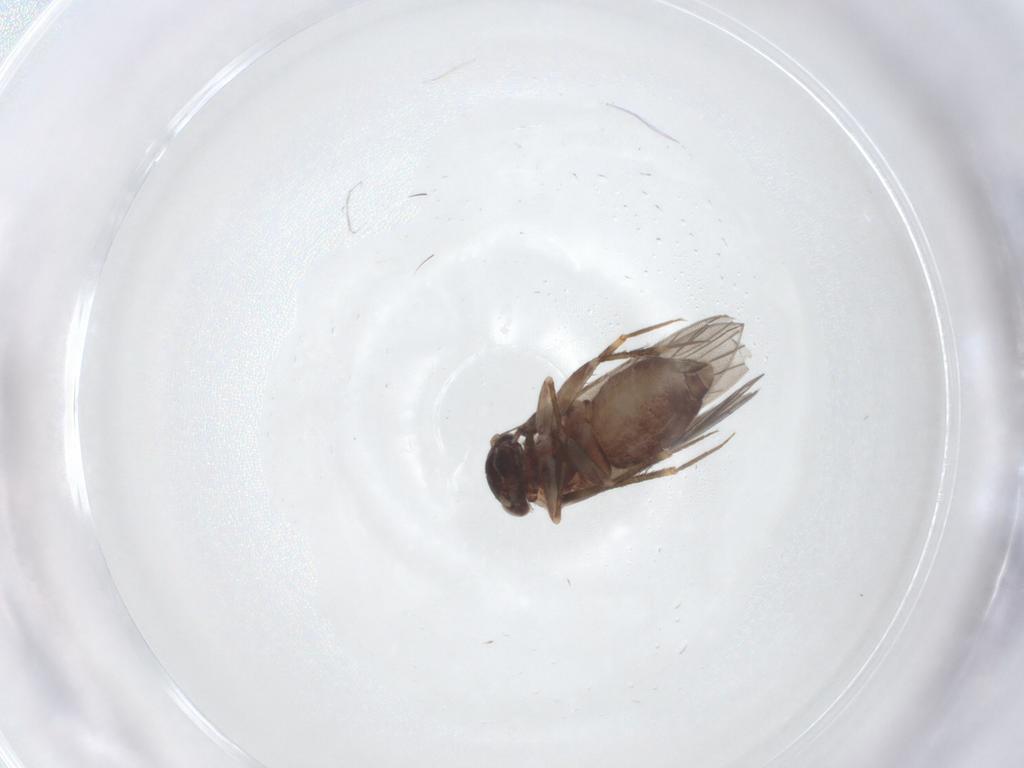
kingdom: Animalia
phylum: Arthropoda
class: Insecta
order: Psocodea
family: Lepidopsocidae
